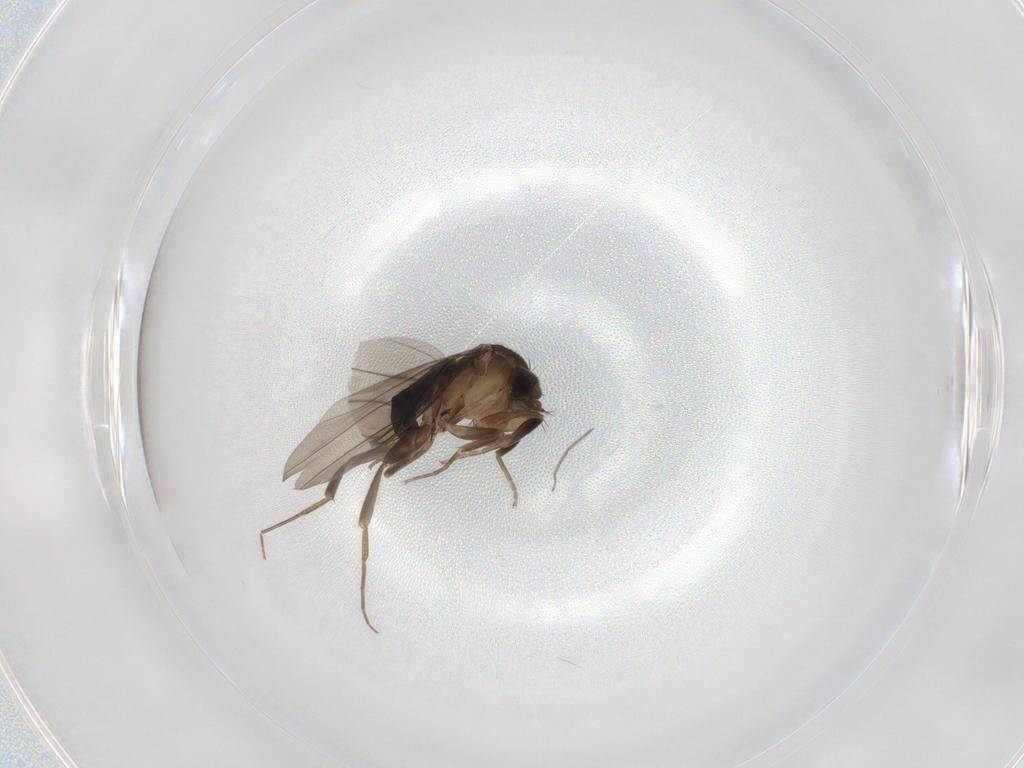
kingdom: Animalia
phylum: Arthropoda
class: Insecta
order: Diptera
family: Phoridae
